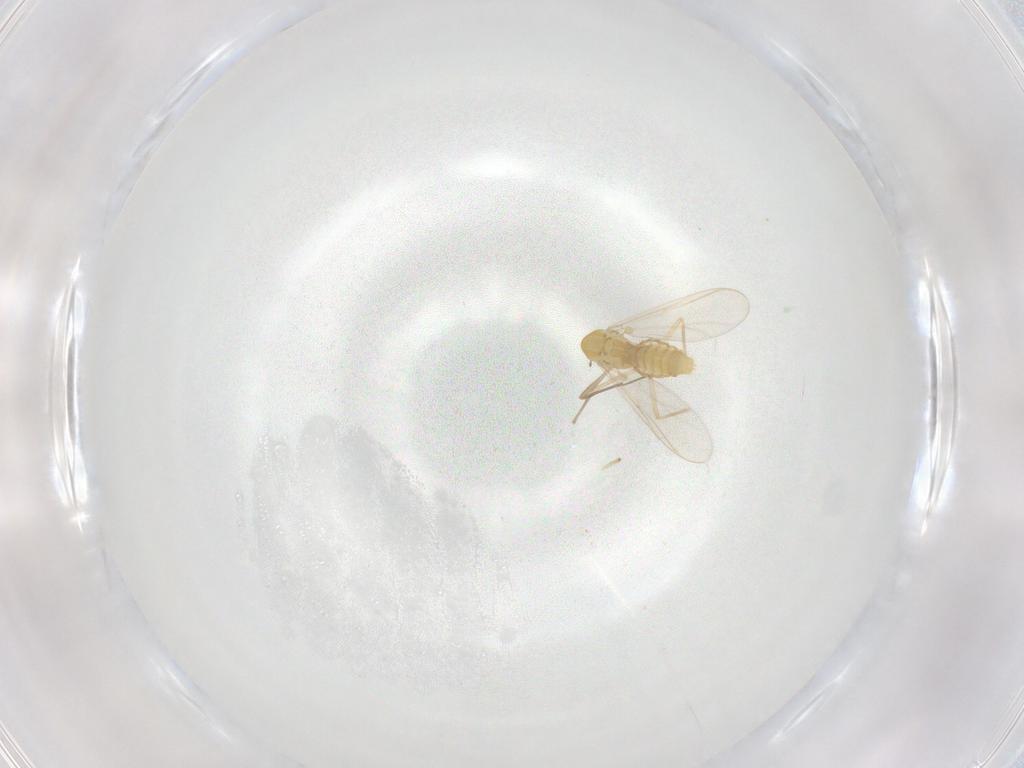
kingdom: Animalia
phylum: Arthropoda
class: Insecta
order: Diptera
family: Chironomidae
